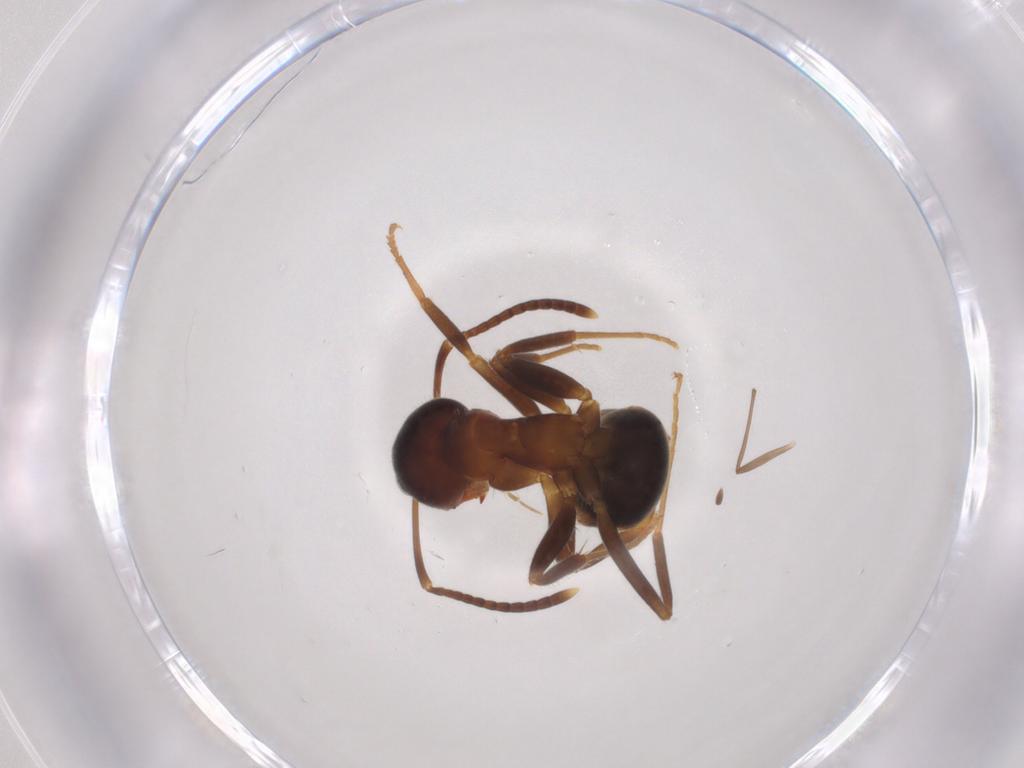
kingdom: Animalia
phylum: Arthropoda
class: Insecta
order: Hymenoptera
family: Formicidae
